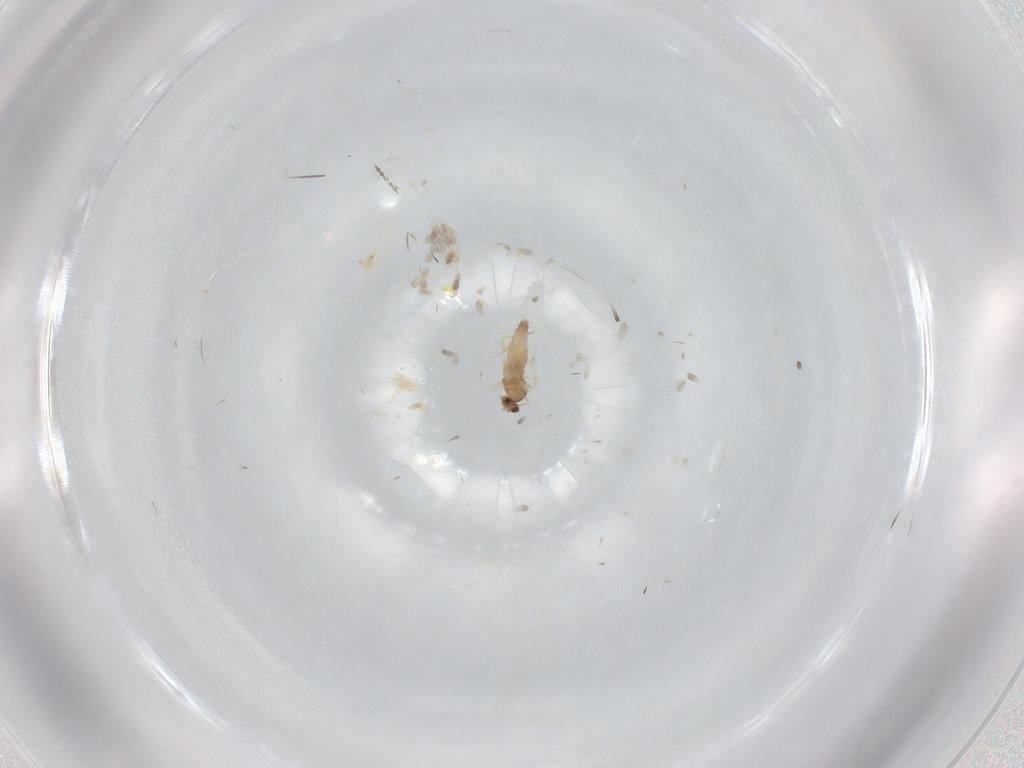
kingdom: Animalia
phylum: Arthropoda
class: Insecta
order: Diptera
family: Cecidomyiidae
